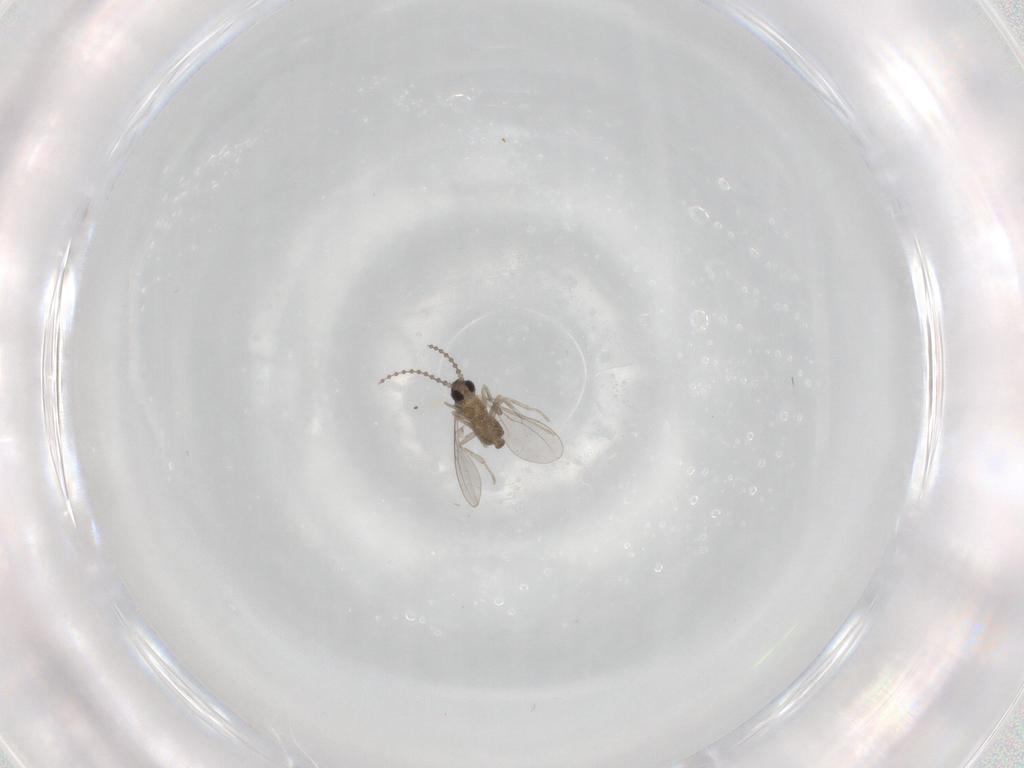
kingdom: Animalia
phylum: Arthropoda
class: Insecta
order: Diptera
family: Cecidomyiidae
